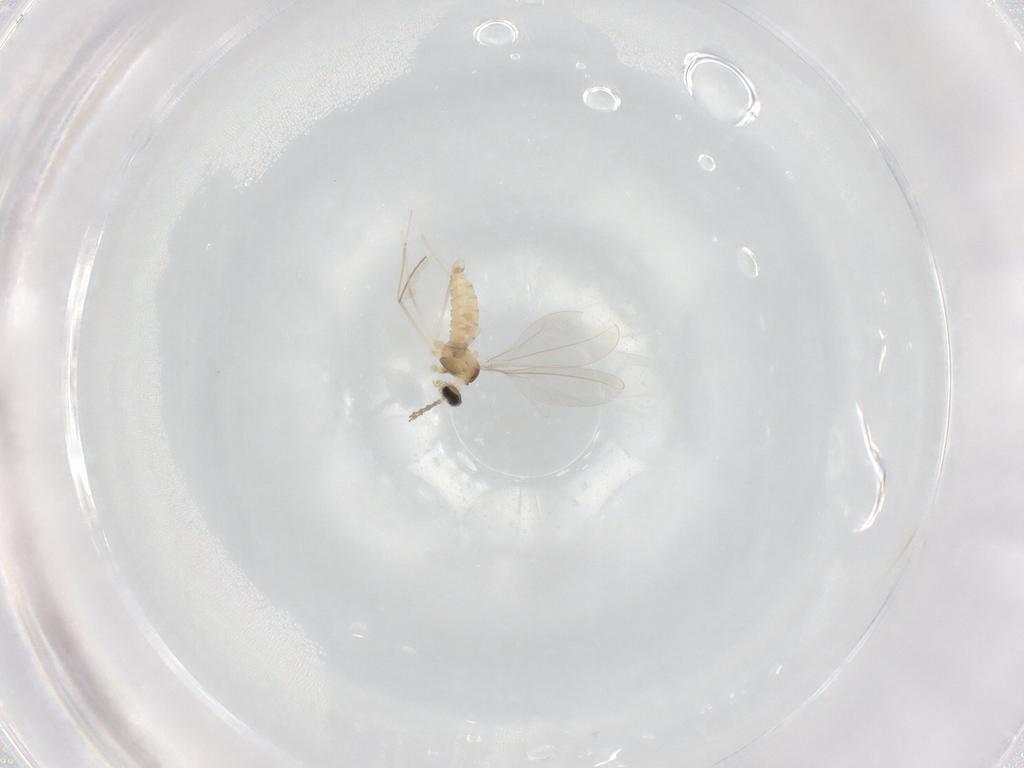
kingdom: Animalia
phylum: Arthropoda
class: Insecta
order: Diptera
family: Cecidomyiidae
